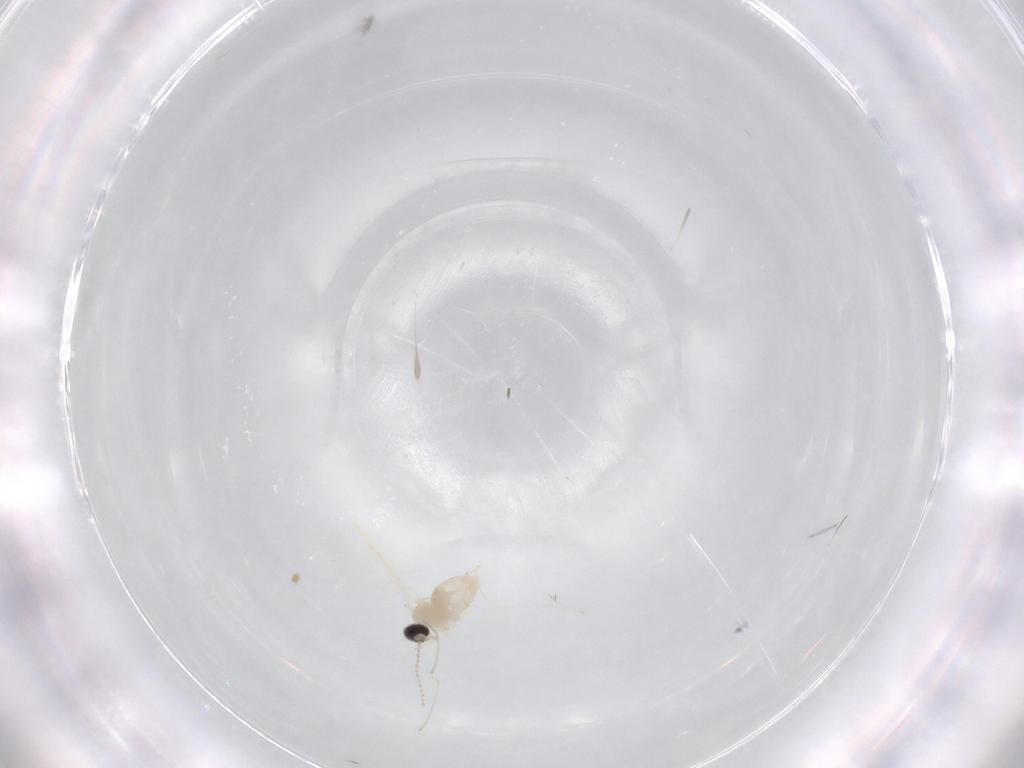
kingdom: Animalia
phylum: Arthropoda
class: Insecta
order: Diptera
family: Cecidomyiidae
